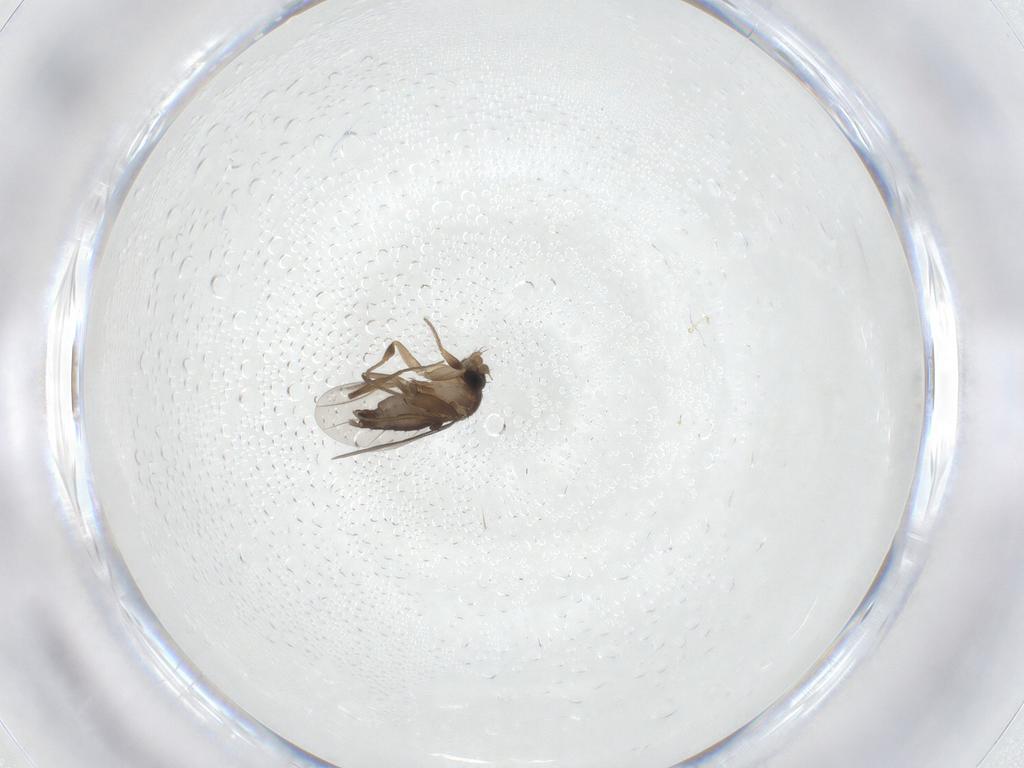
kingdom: Animalia
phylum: Arthropoda
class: Insecta
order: Diptera
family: Phoridae
